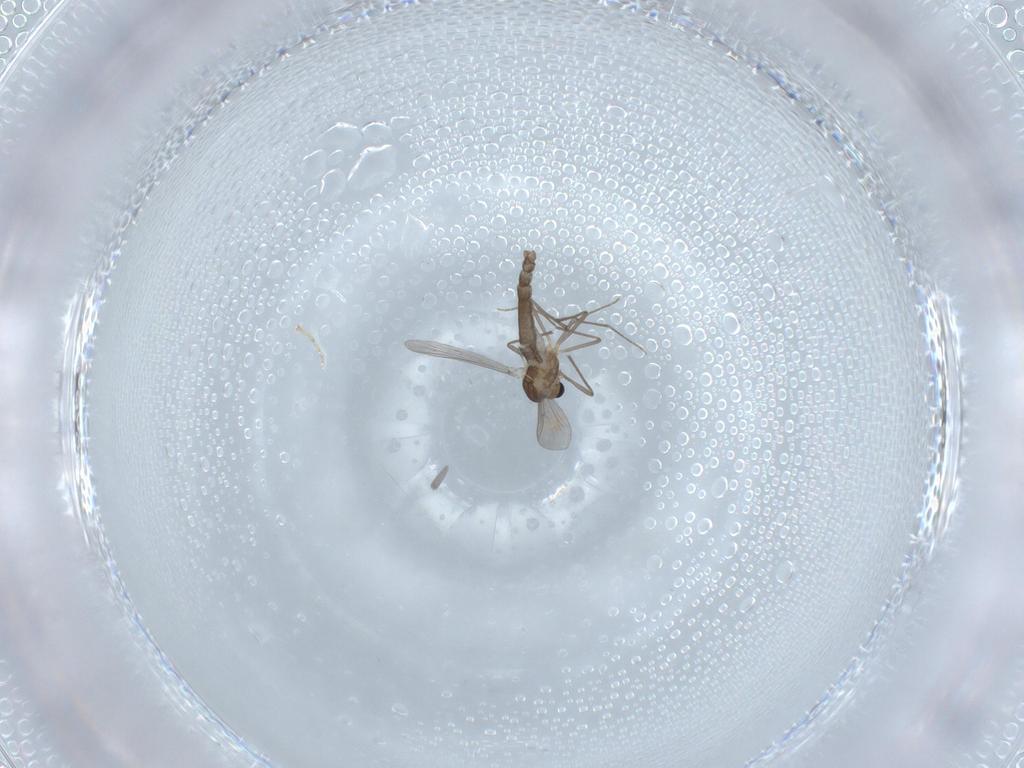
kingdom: Animalia
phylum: Arthropoda
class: Insecta
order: Diptera
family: Chironomidae
